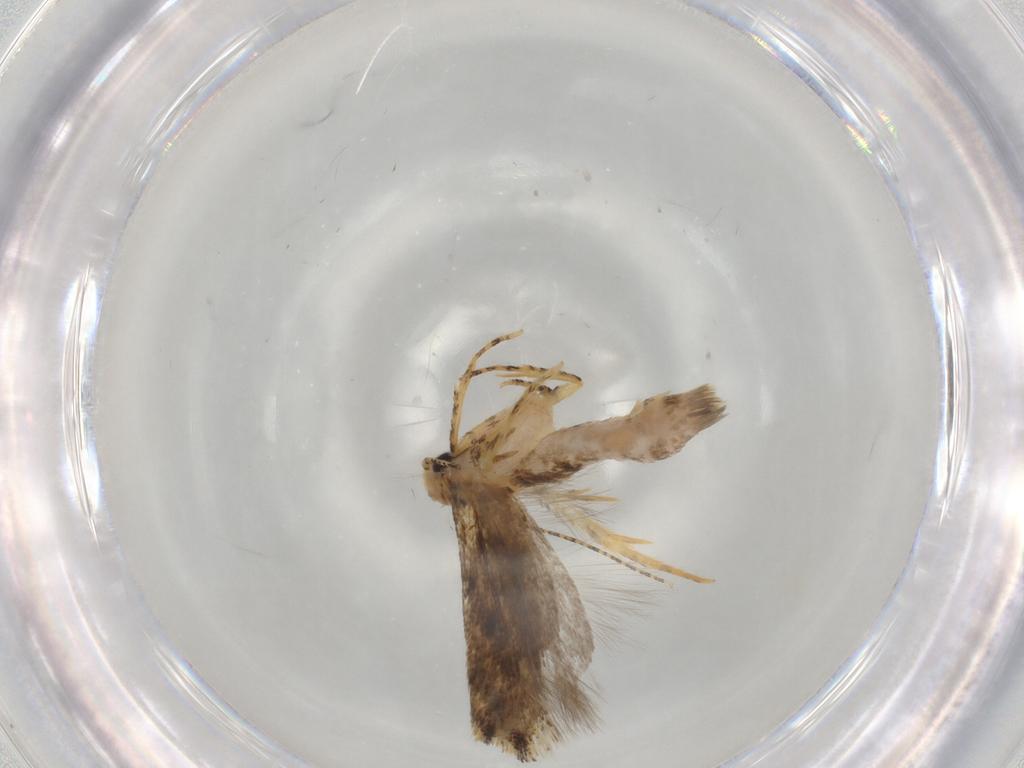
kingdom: Animalia
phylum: Arthropoda
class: Insecta
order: Lepidoptera
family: Gelechiidae
